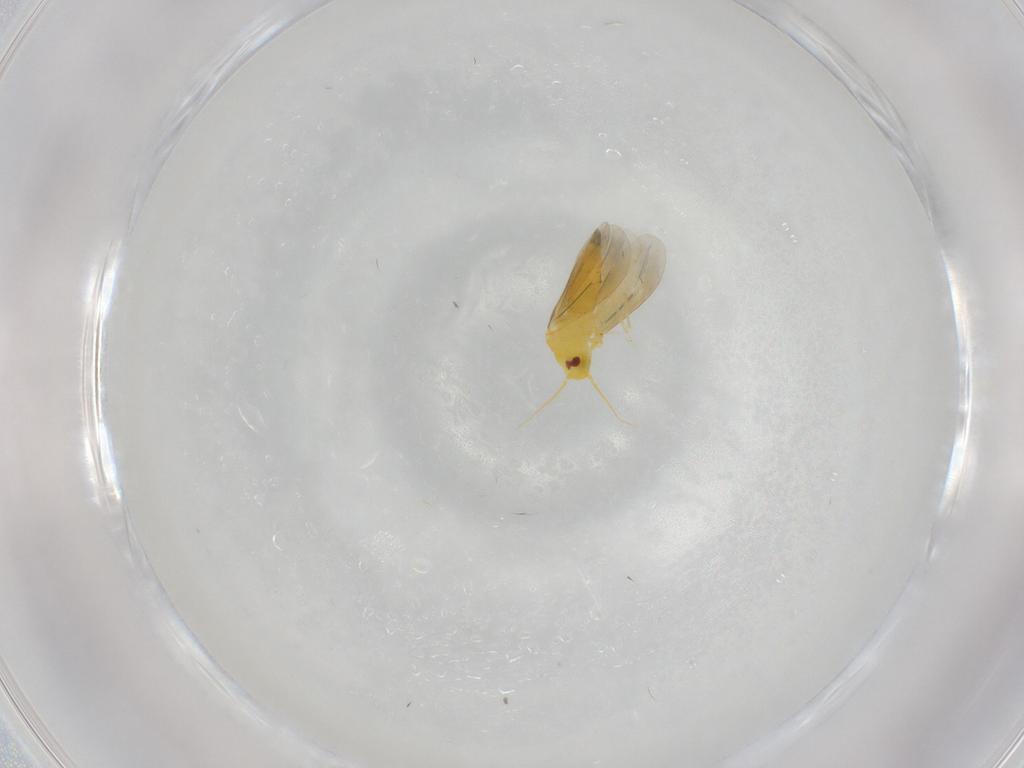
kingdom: Animalia
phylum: Arthropoda
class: Insecta
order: Hemiptera
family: Aleyrodidae
